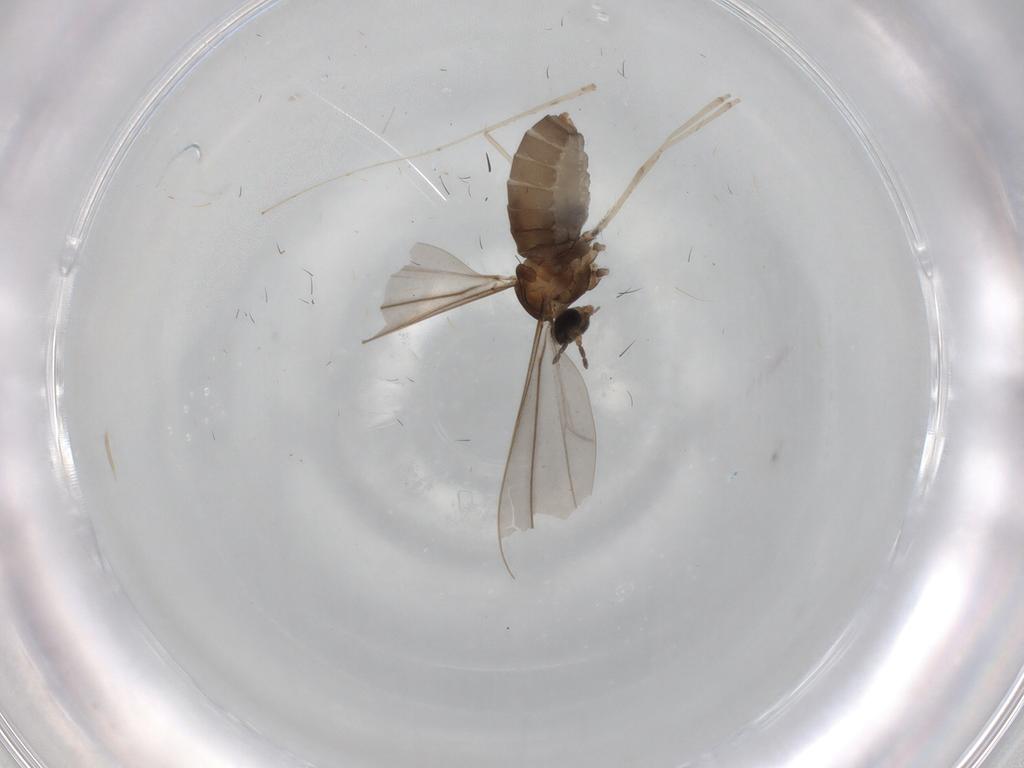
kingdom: Animalia
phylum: Arthropoda
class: Insecta
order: Diptera
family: Cecidomyiidae
